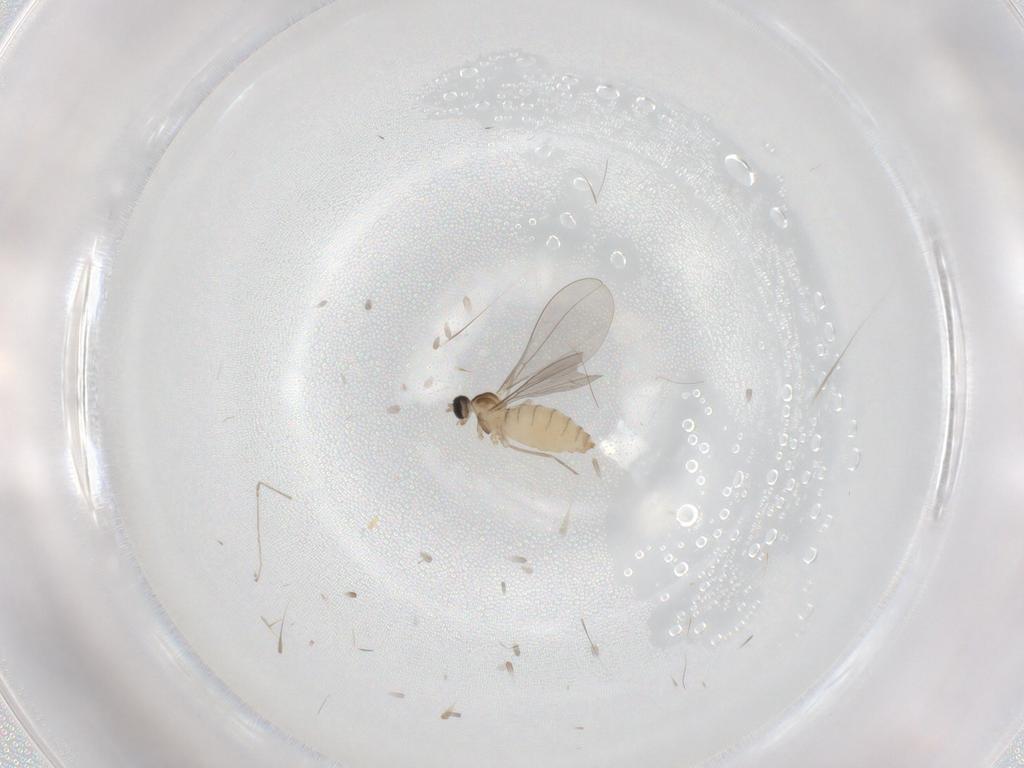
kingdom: Animalia
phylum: Arthropoda
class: Insecta
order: Diptera
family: Cecidomyiidae
